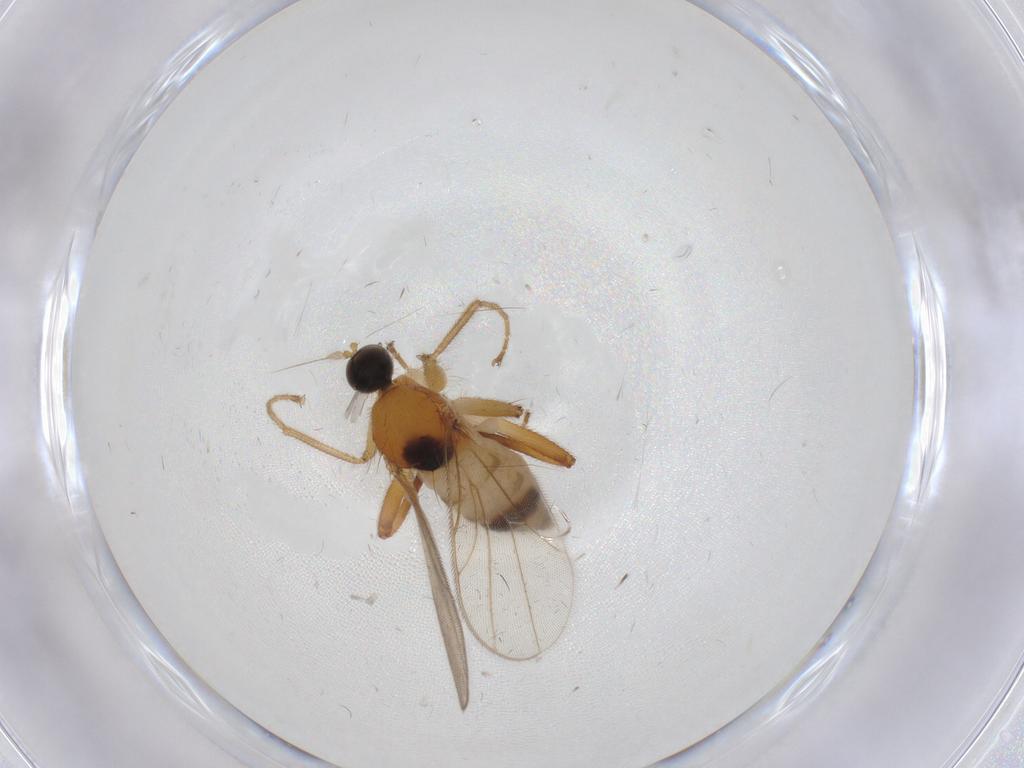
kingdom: Animalia
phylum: Arthropoda
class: Insecta
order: Diptera
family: Hybotidae
